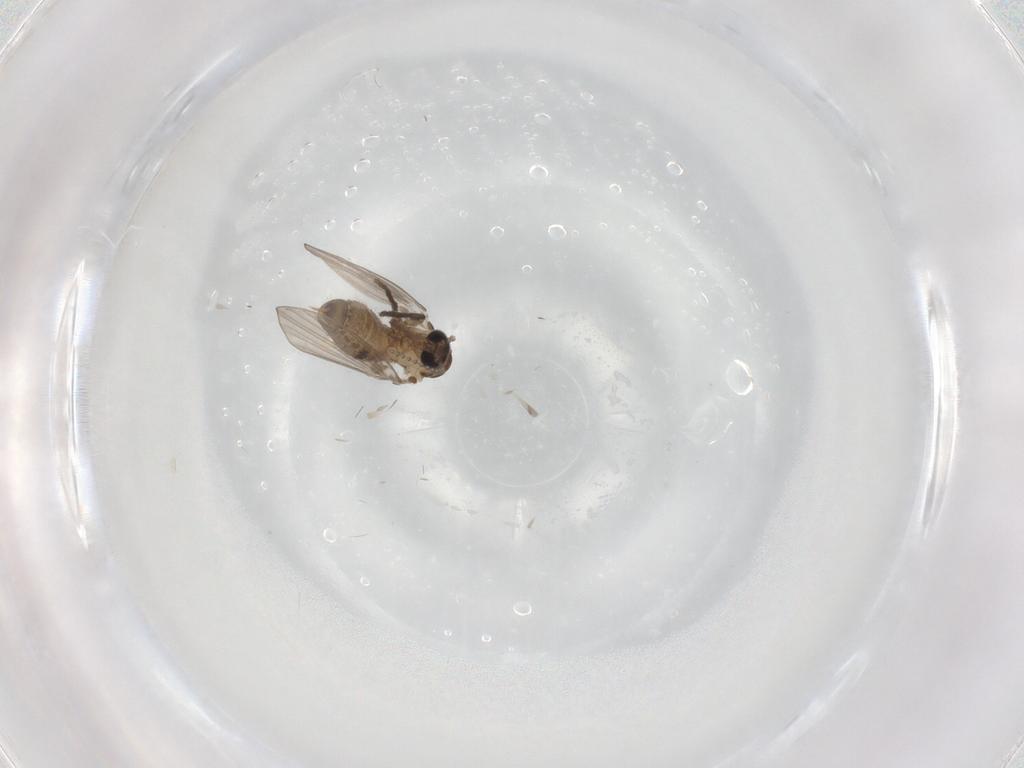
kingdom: Animalia
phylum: Arthropoda
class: Insecta
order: Diptera
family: Psychodidae
